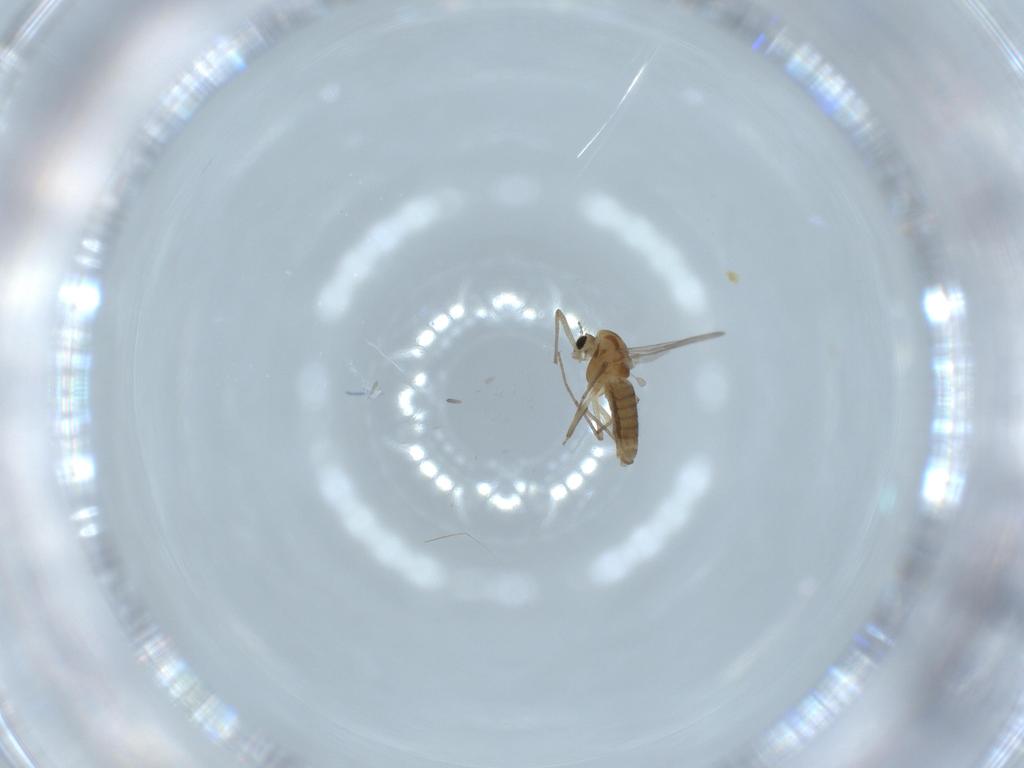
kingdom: Animalia
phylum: Arthropoda
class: Insecta
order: Diptera
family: Chironomidae
